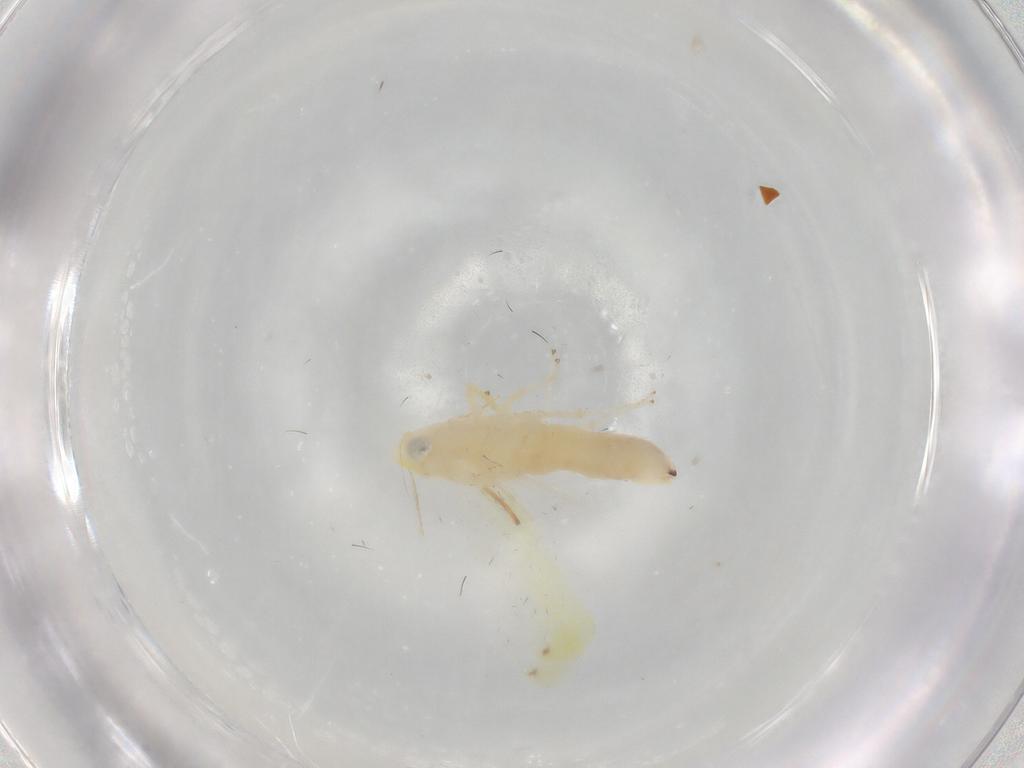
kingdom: Animalia
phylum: Arthropoda
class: Insecta
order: Hemiptera
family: Cicadellidae
